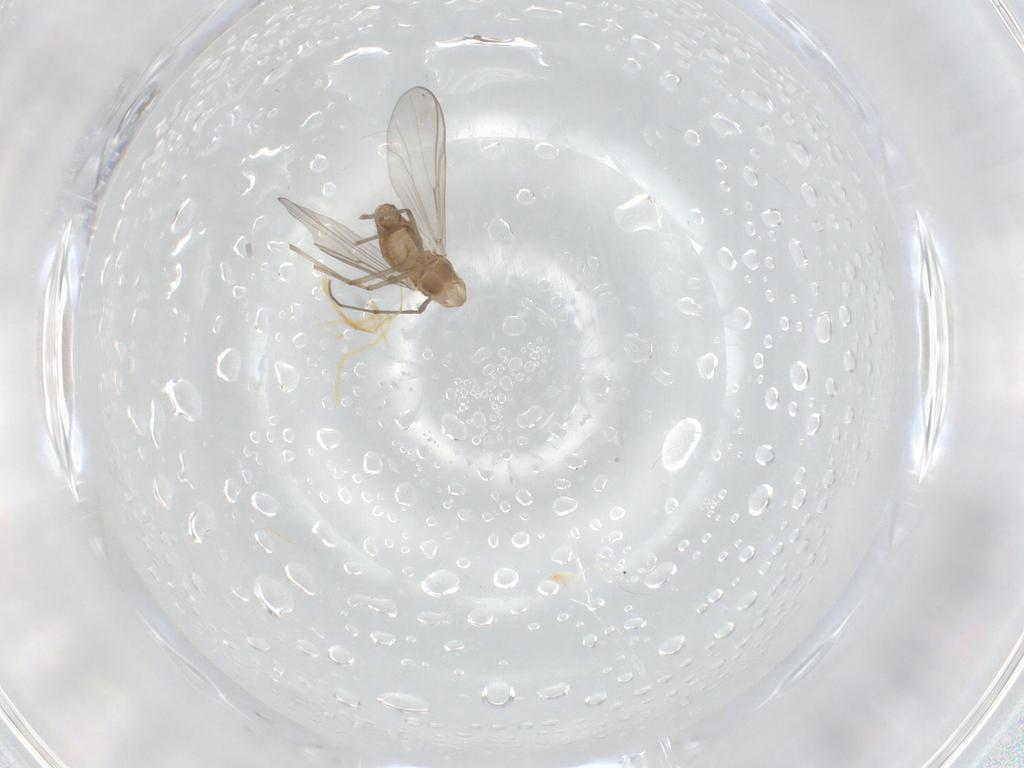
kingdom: Animalia
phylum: Arthropoda
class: Insecta
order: Diptera
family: Chironomidae
